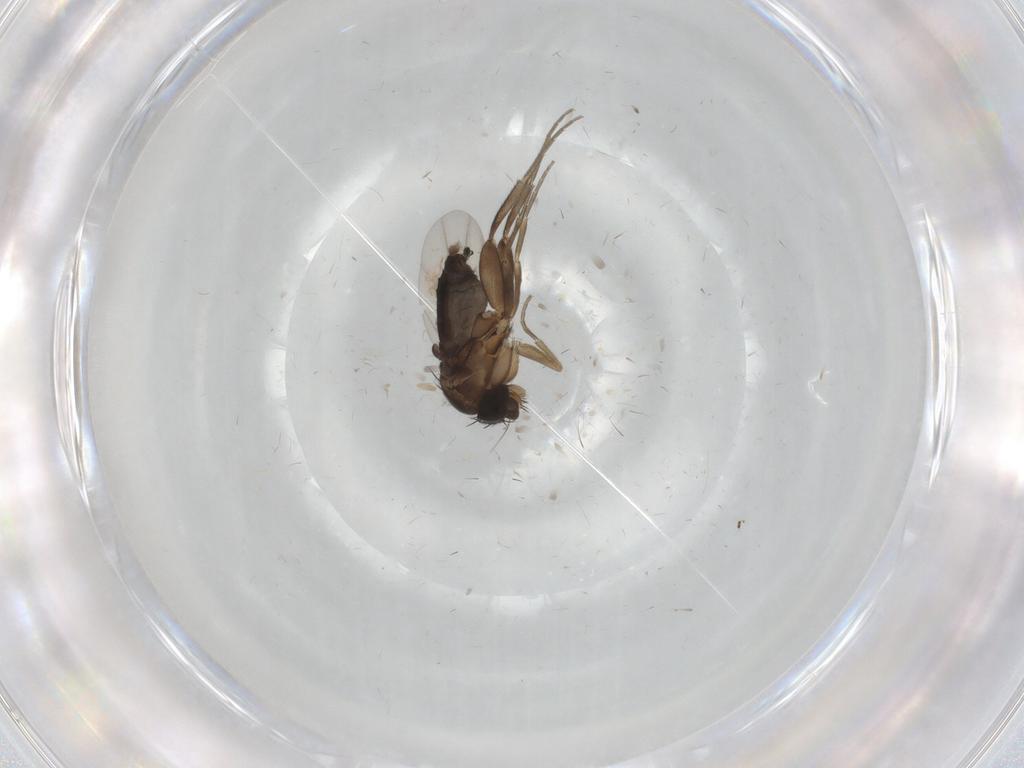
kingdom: Animalia
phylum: Arthropoda
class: Insecta
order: Diptera
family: Phoridae
